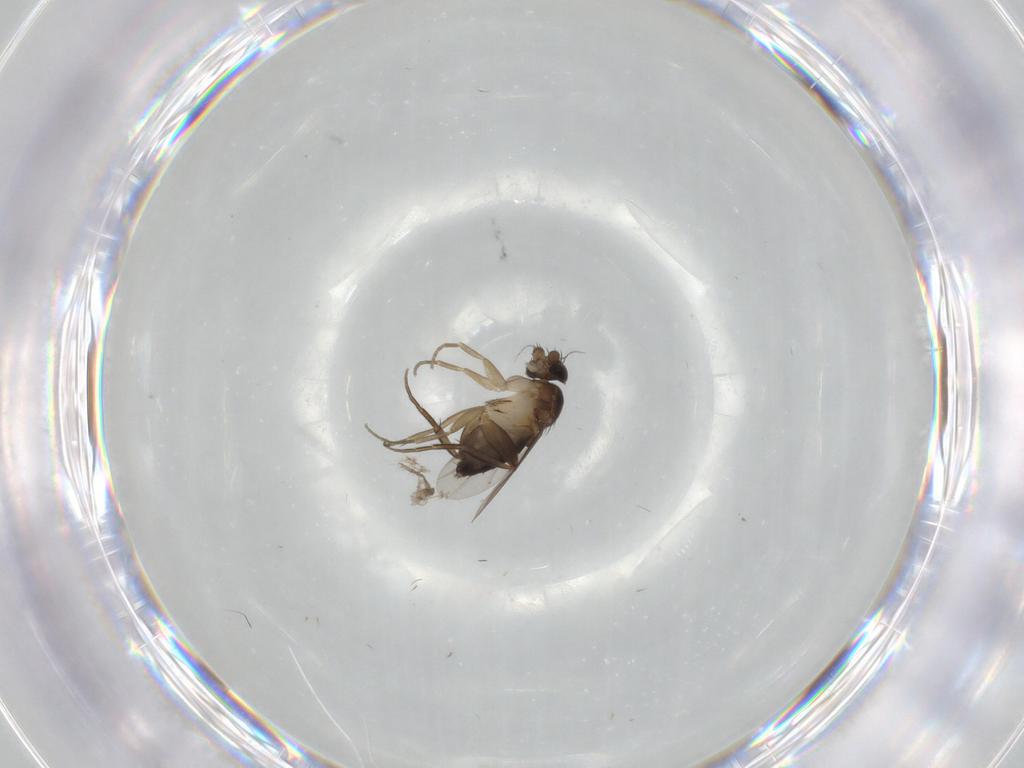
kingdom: Animalia
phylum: Arthropoda
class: Insecta
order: Diptera
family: Phoridae
